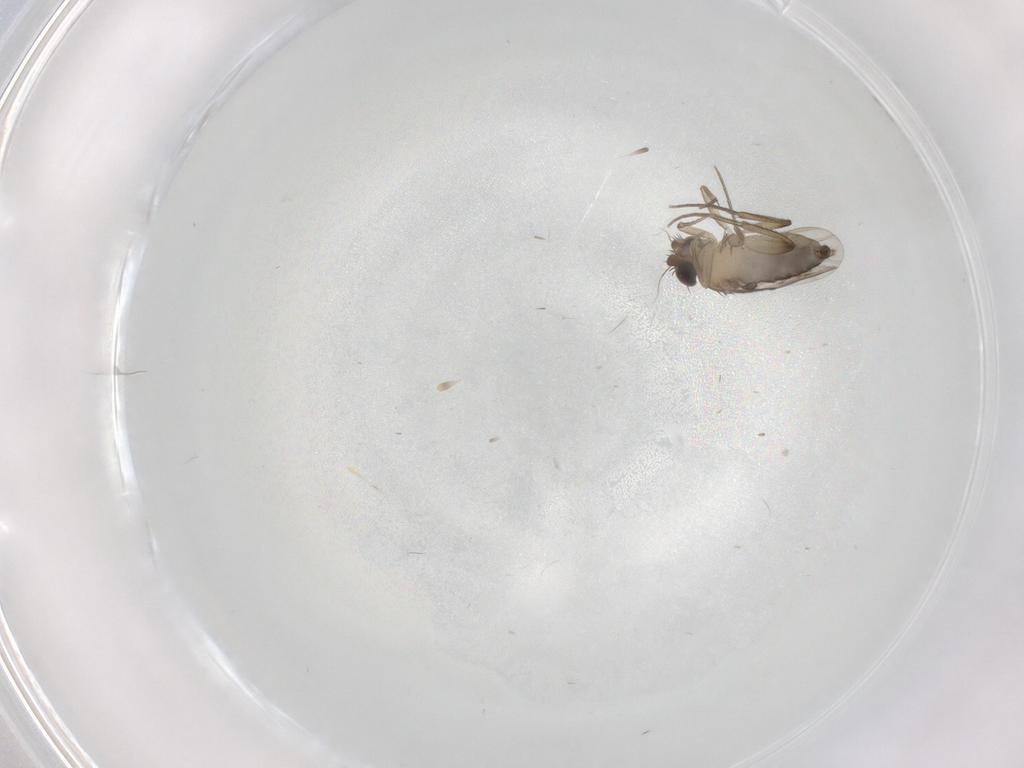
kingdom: Animalia
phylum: Arthropoda
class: Insecta
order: Diptera
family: Phoridae
